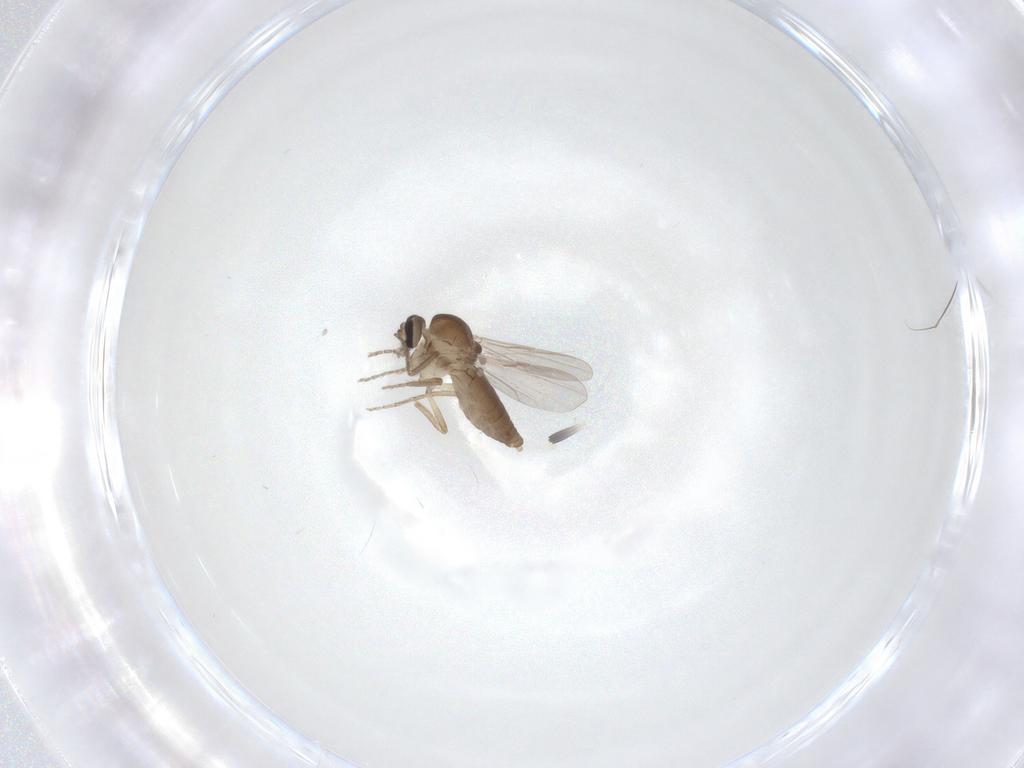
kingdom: Animalia
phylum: Arthropoda
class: Insecta
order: Diptera
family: Ceratopogonidae
